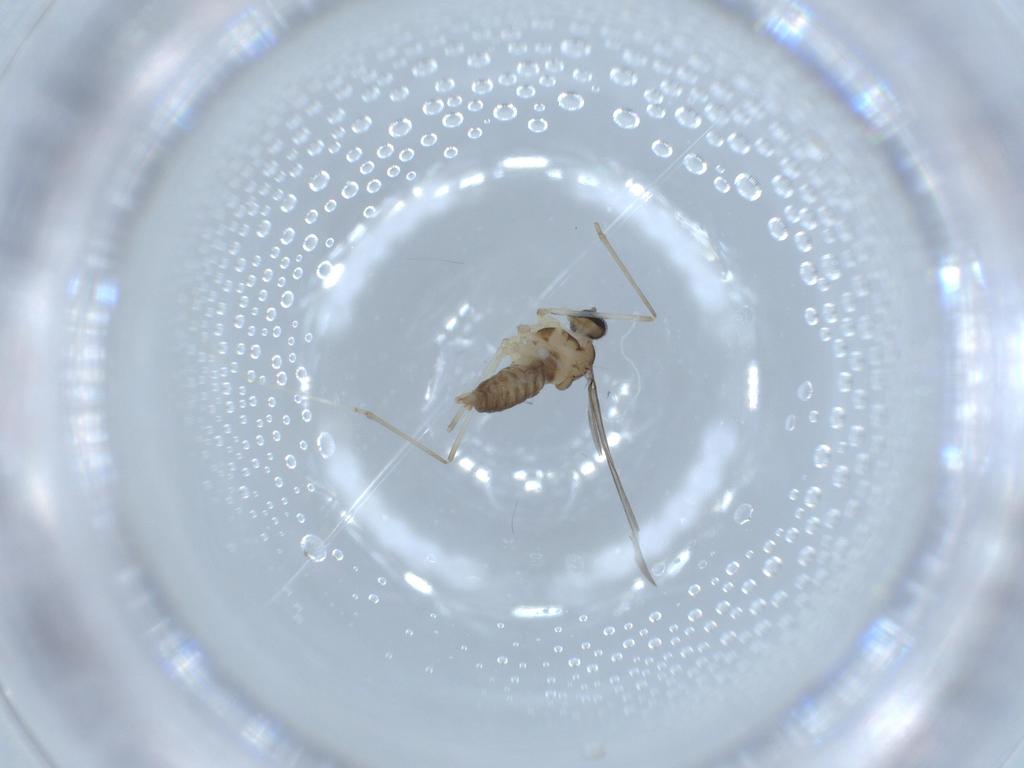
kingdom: Animalia
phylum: Arthropoda
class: Insecta
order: Diptera
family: Cecidomyiidae
